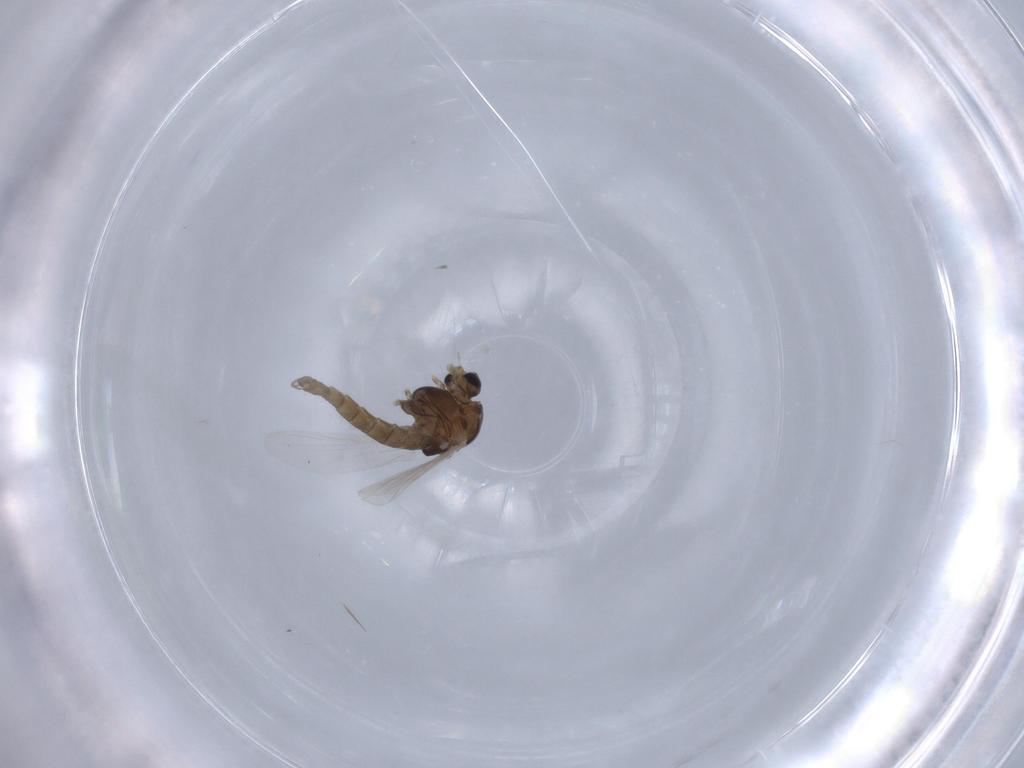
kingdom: Animalia
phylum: Arthropoda
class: Insecta
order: Diptera
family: Chironomidae
